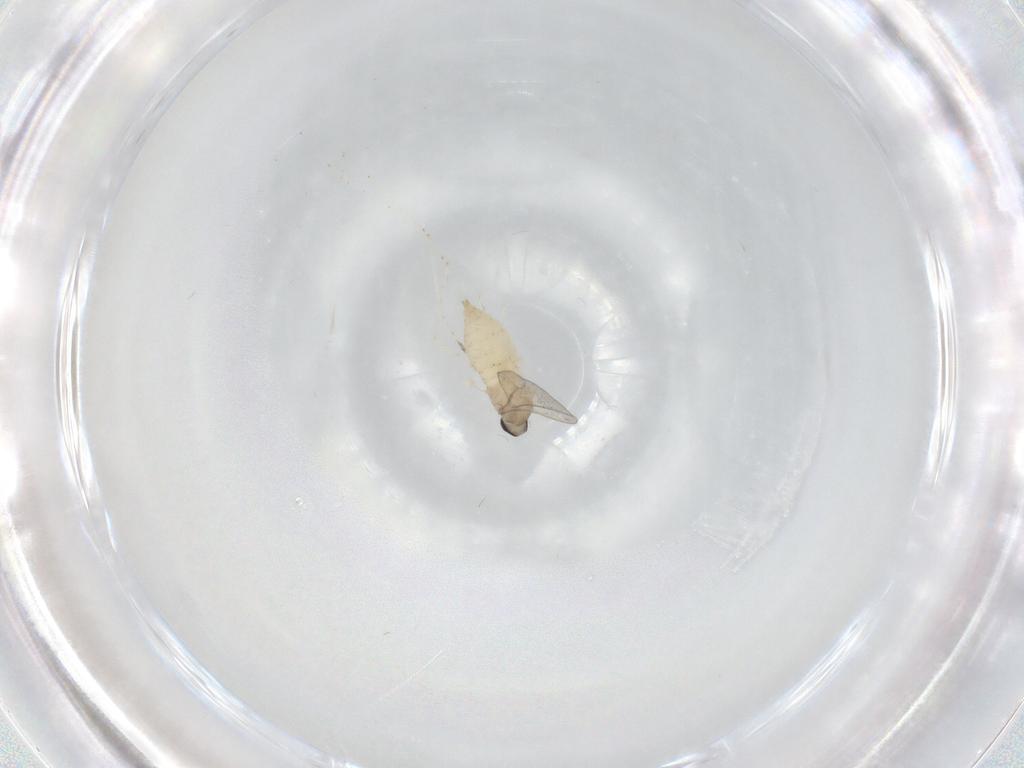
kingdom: Animalia
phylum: Arthropoda
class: Insecta
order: Diptera
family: Cecidomyiidae
